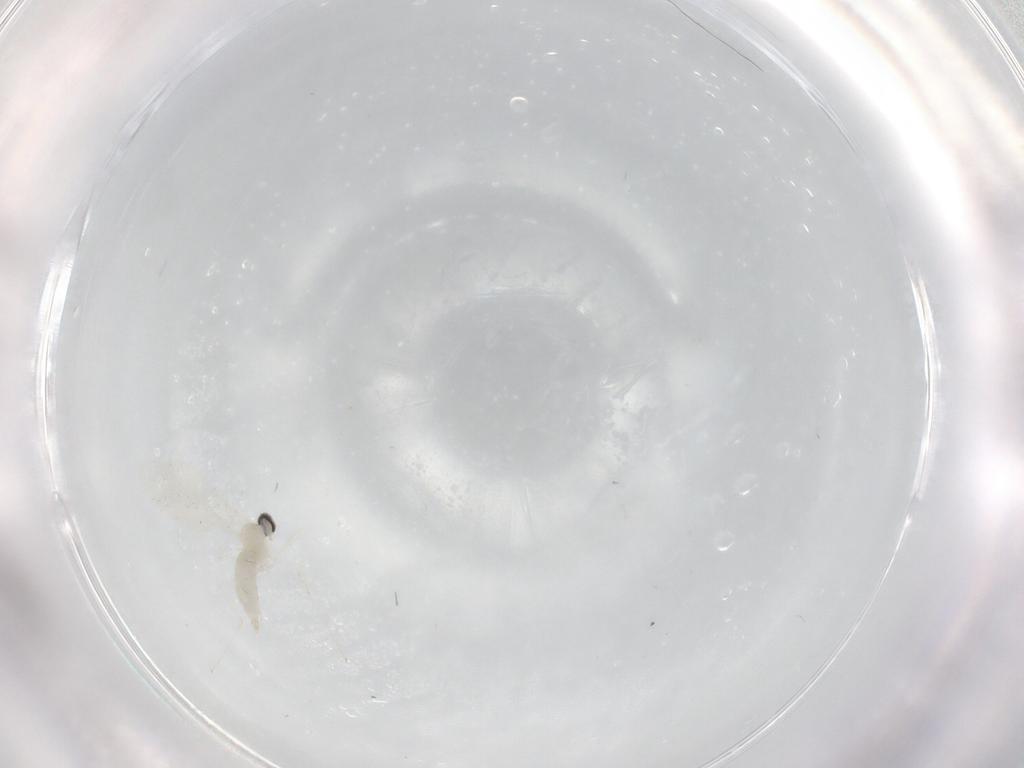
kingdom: Animalia
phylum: Arthropoda
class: Insecta
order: Diptera
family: Cecidomyiidae
